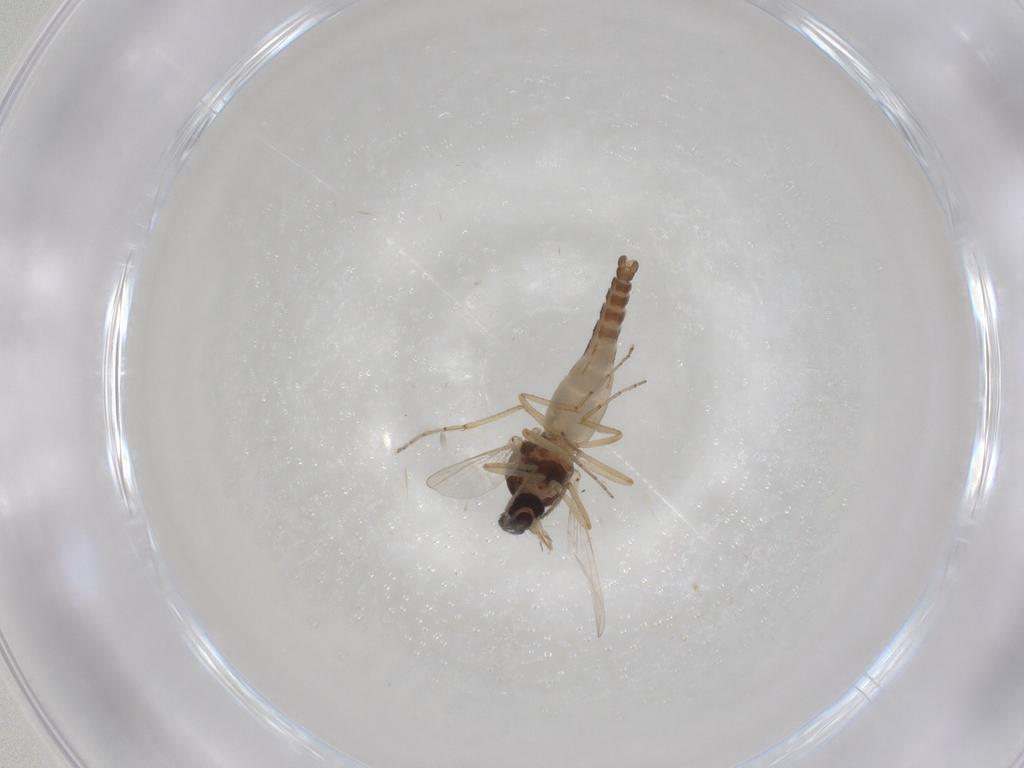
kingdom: Animalia
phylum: Arthropoda
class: Insecta
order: Diptera
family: Ceratopogonidae
